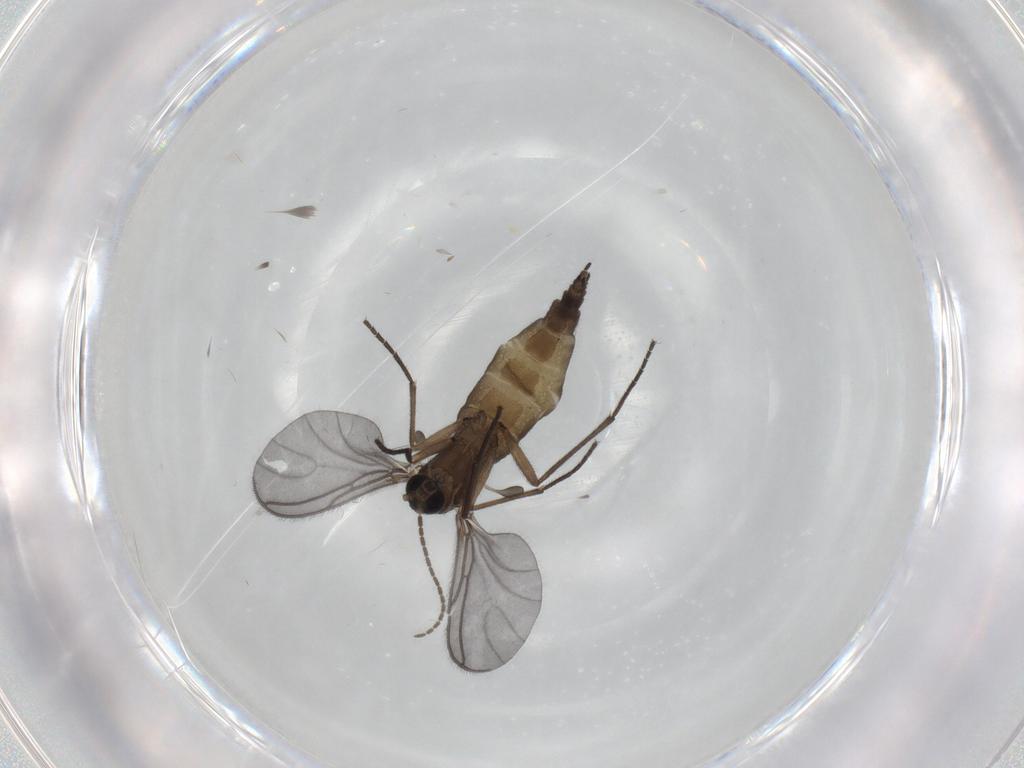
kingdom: Animalia
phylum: Arthropoda
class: Insecta
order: Diptera
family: Sciaridae
